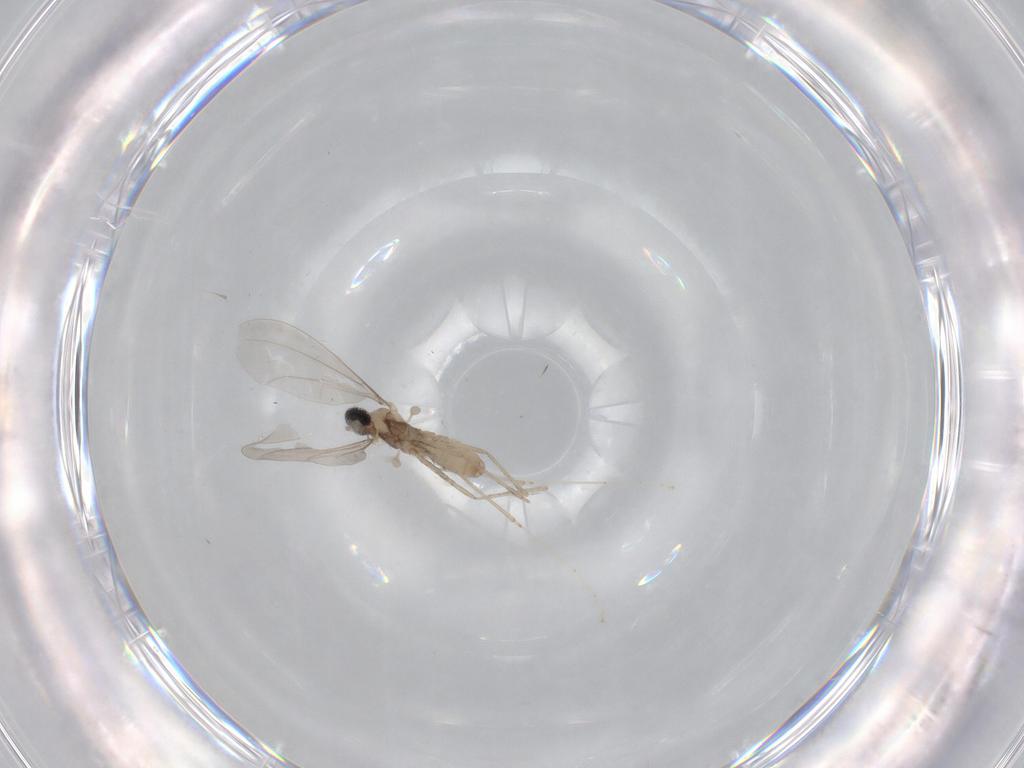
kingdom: Animalia
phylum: Arthropoda
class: Insecta
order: Diptera
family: Cecidomyiidae
